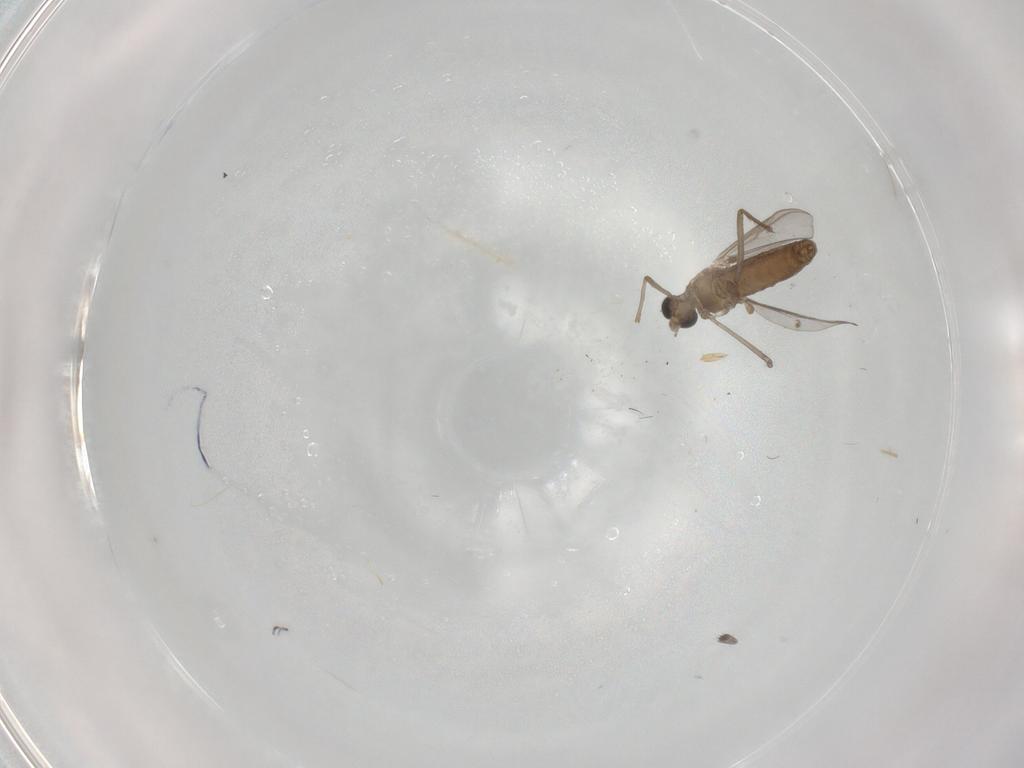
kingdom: Animalia
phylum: Arthropoda
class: Insecta
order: Diptera
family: Chironomidae
